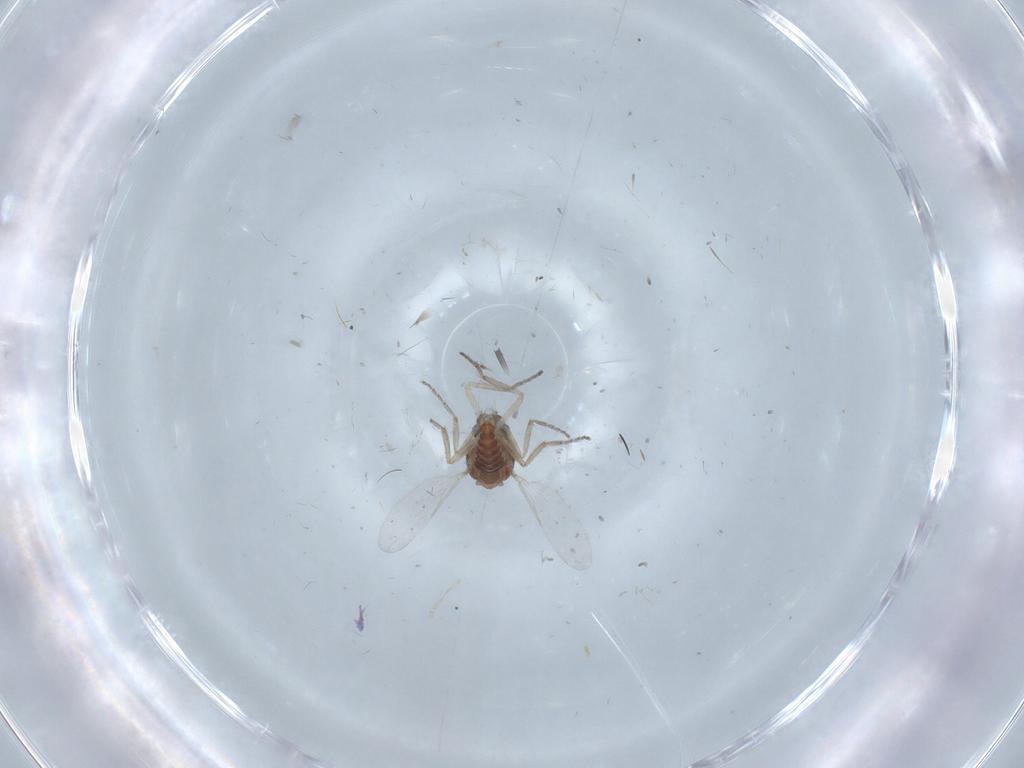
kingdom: Animalia
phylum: Arthropoda
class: Insecta
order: Diptera
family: Ceratopogonidae
